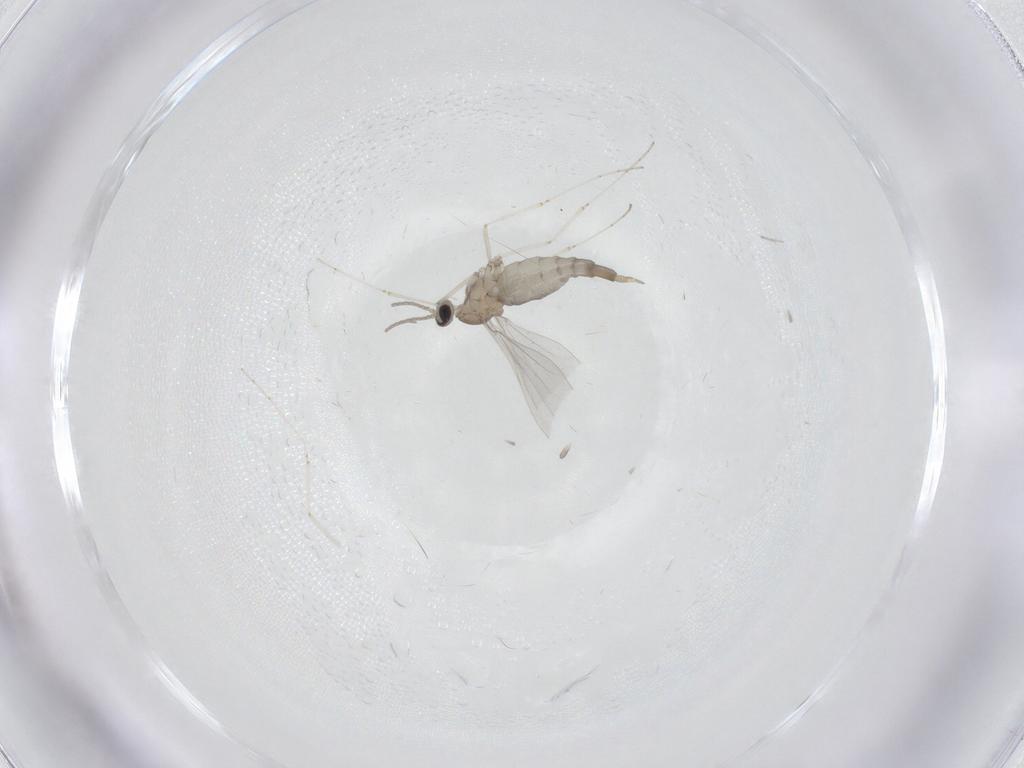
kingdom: Animalia
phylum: Arthropoda
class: Insecta
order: Diptera
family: Cecidomyiidae
